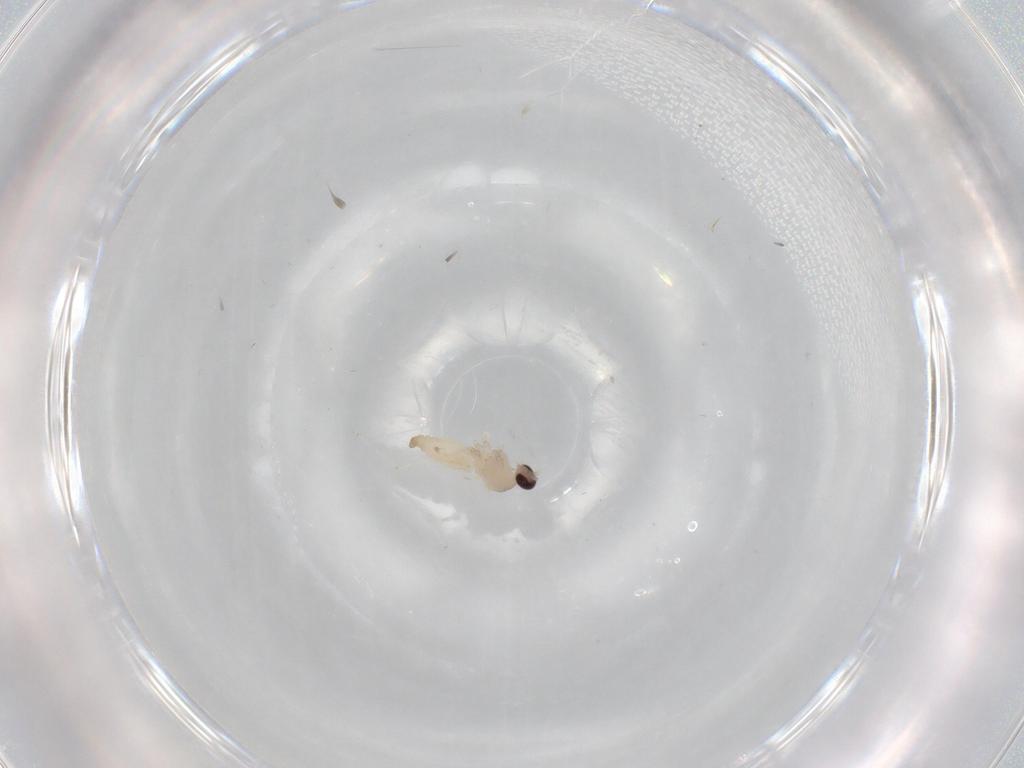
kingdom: Animalia
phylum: Arthropoda
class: Insecta
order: Diptera
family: Cecidomyiidae
